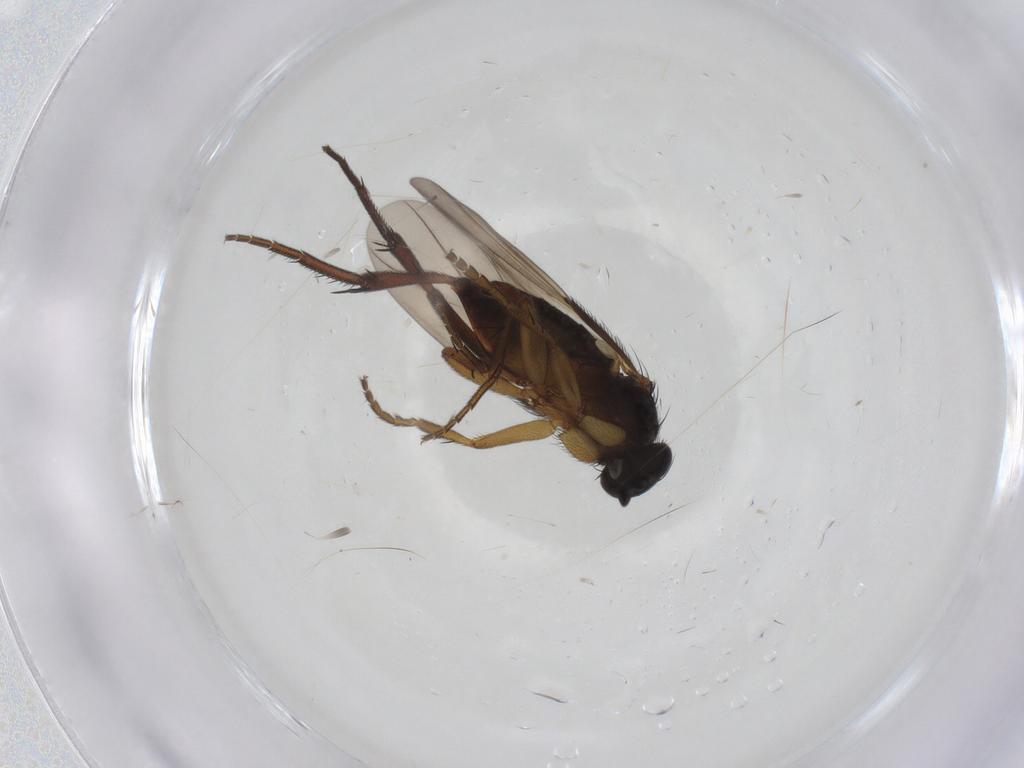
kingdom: Animalia
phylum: Arthropoda
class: Insecta
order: Diptera
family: Phoridae
